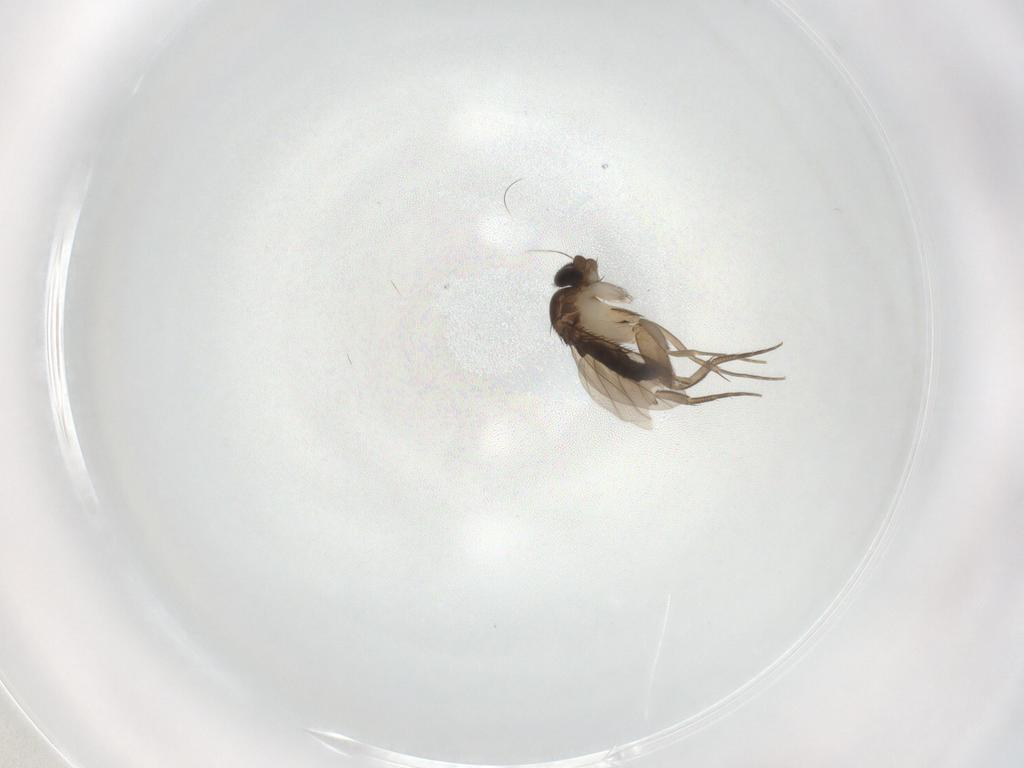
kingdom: Animalia
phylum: Arthropoda
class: Insecta
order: Diptera
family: Phoridae
